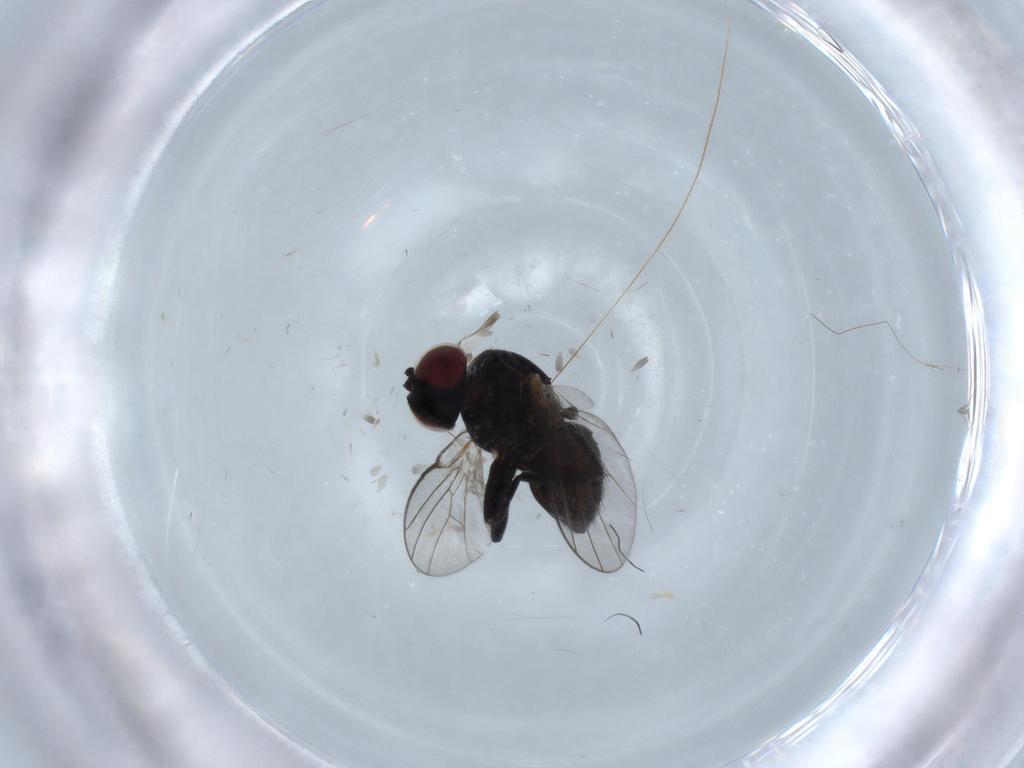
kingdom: Animalia
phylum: Arthropoda
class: Insecta
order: Diptera
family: Agromyzidae
